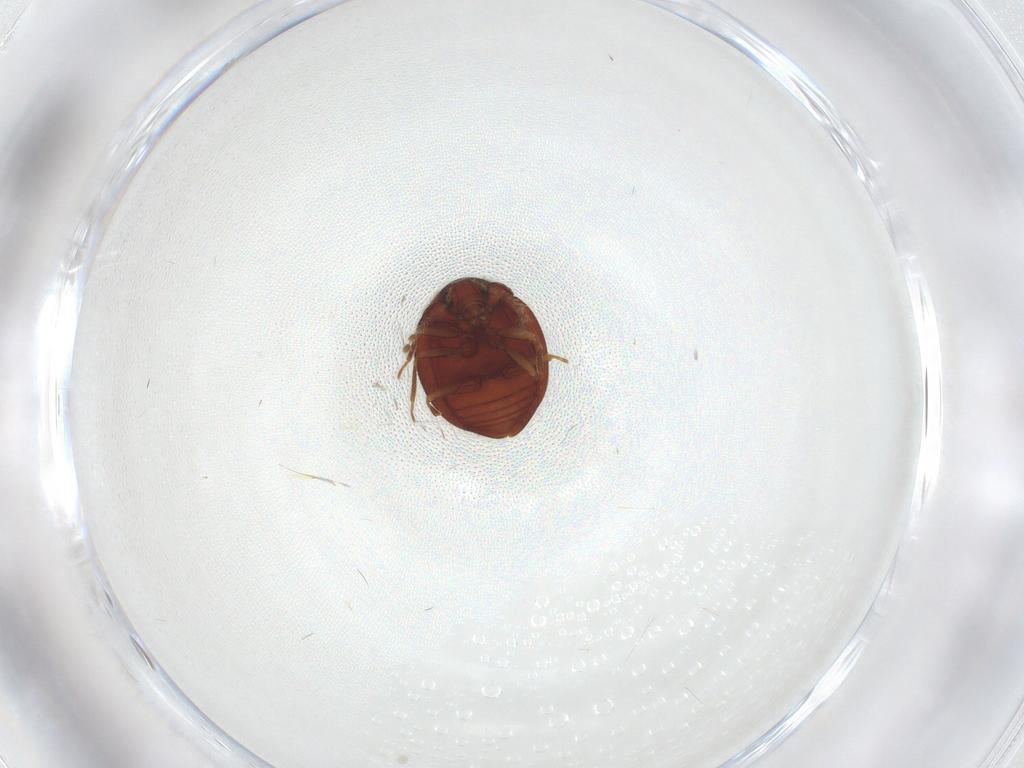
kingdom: Animalia
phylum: Arthropoda
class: Insecta
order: Coleoptera
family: Anamorphidae
